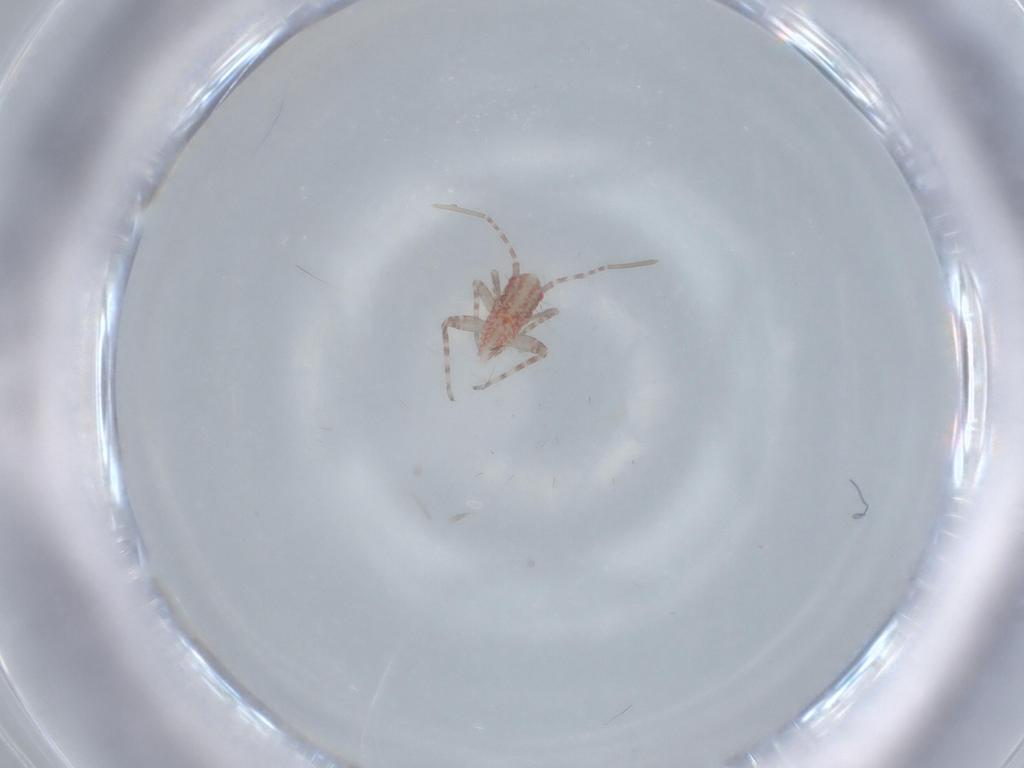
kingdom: Animalia
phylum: Arthropoda
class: Insecta
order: Hemiptera
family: Miridae
